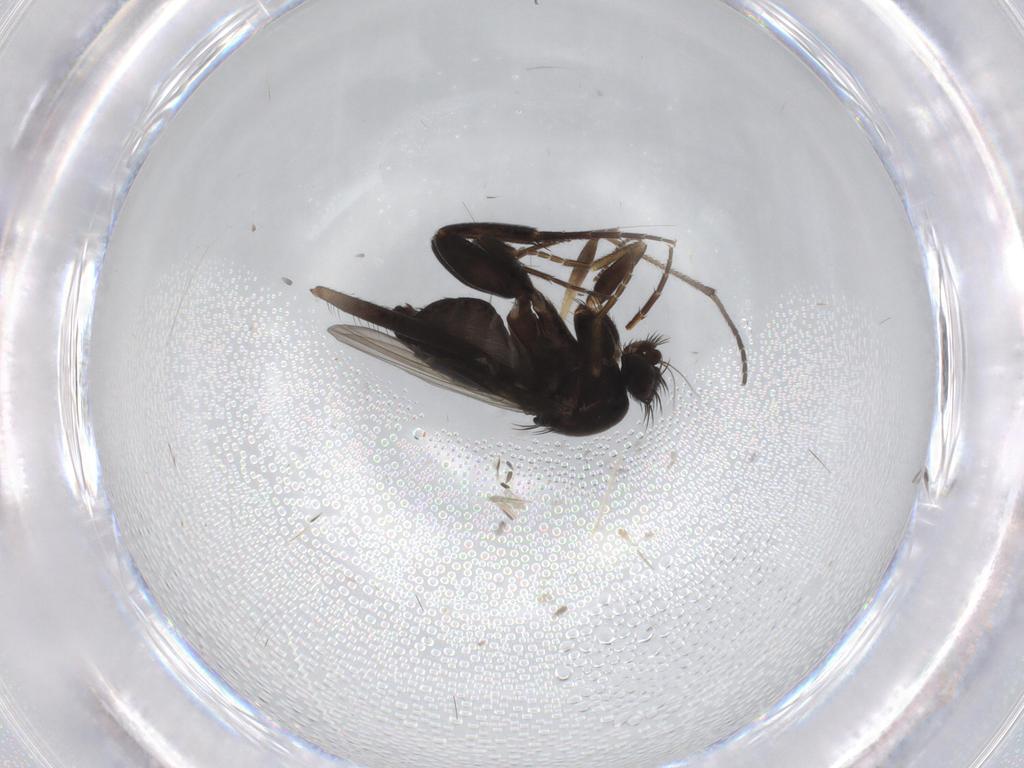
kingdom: Animalia
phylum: Arthropoda
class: Insecta
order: Diptera
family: Phoridae
